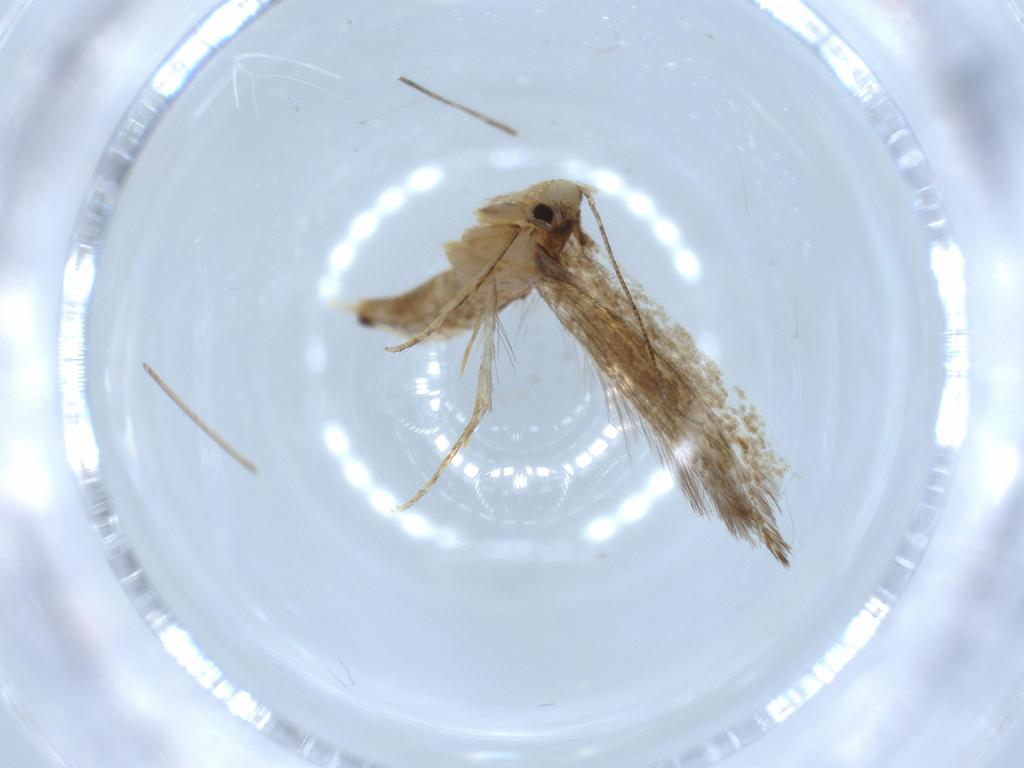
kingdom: Animalia
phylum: Arthropoda
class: Insecta
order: Lepidoptera
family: Tineidae
